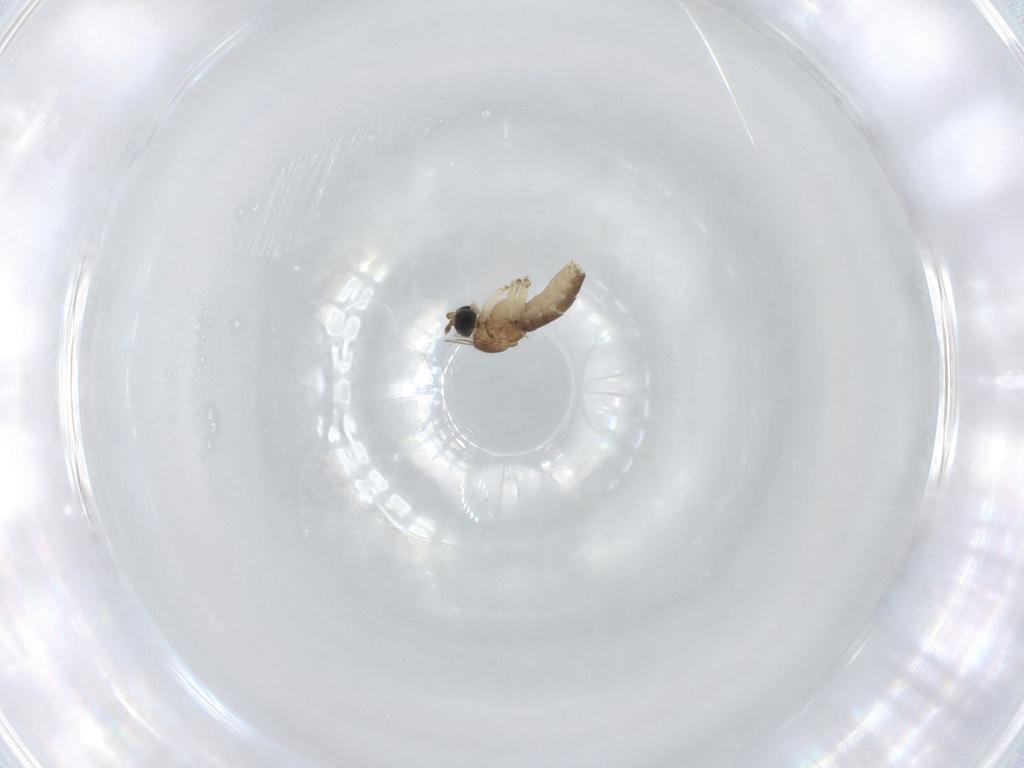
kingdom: Animalia
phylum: Arthropoda
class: Insecta
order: Diptera
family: Sciaridae
